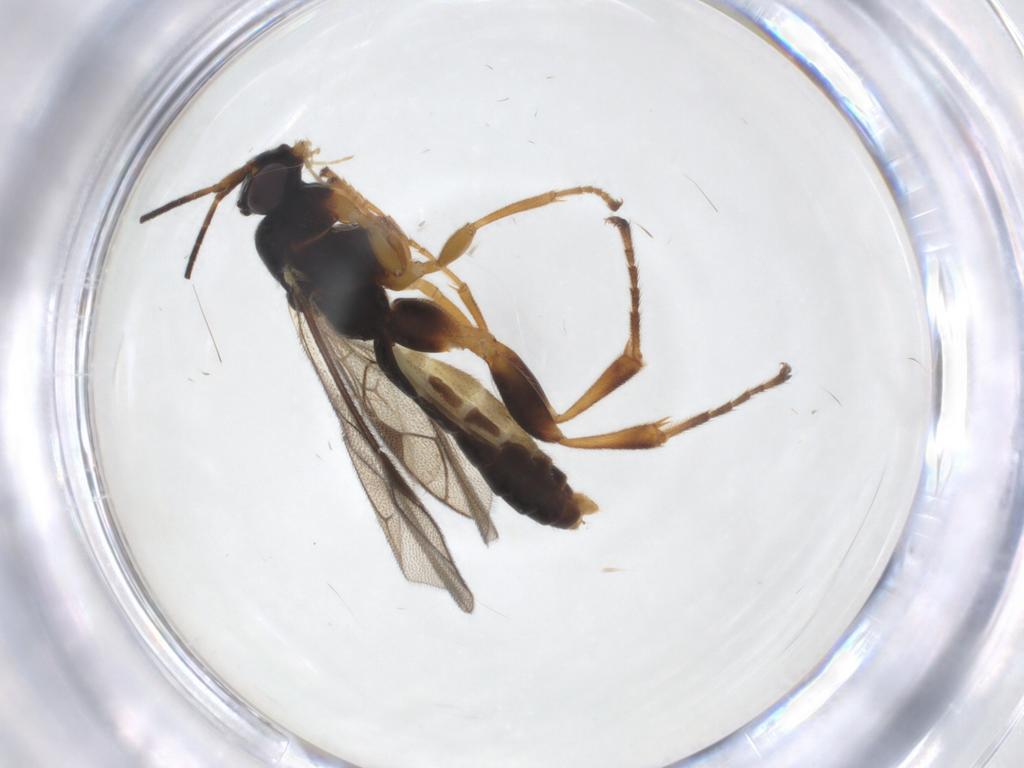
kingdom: Animalia
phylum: Arthropoda
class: Insecta
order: Hymenoptera
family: Ichneumonidae
